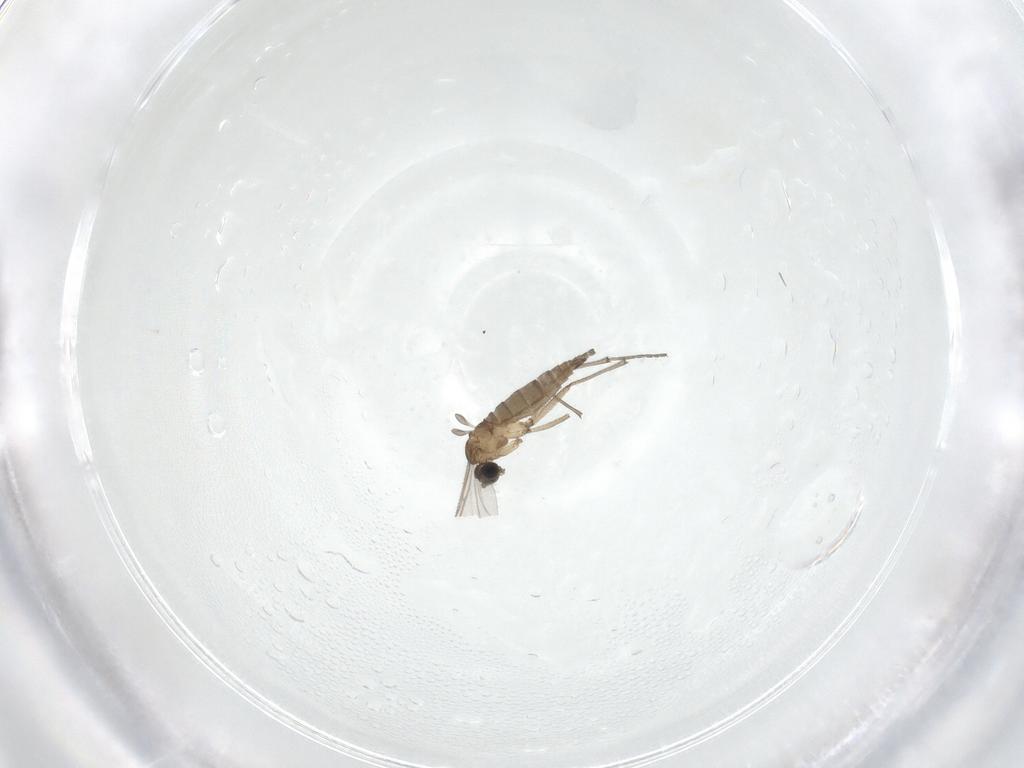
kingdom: Animalia
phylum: Arthropoda
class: Insecta
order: Diptera
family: Sciaridae
